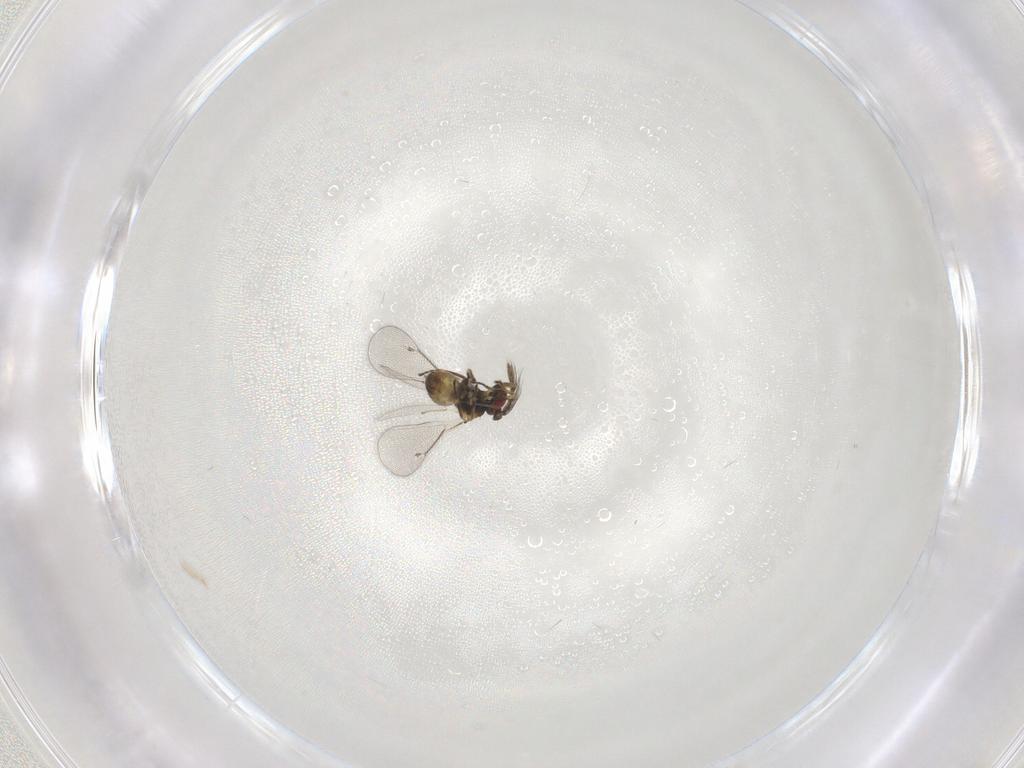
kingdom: Animalia
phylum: Arthropoda
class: Insecta
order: Hymenoptera
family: Eulophidae
